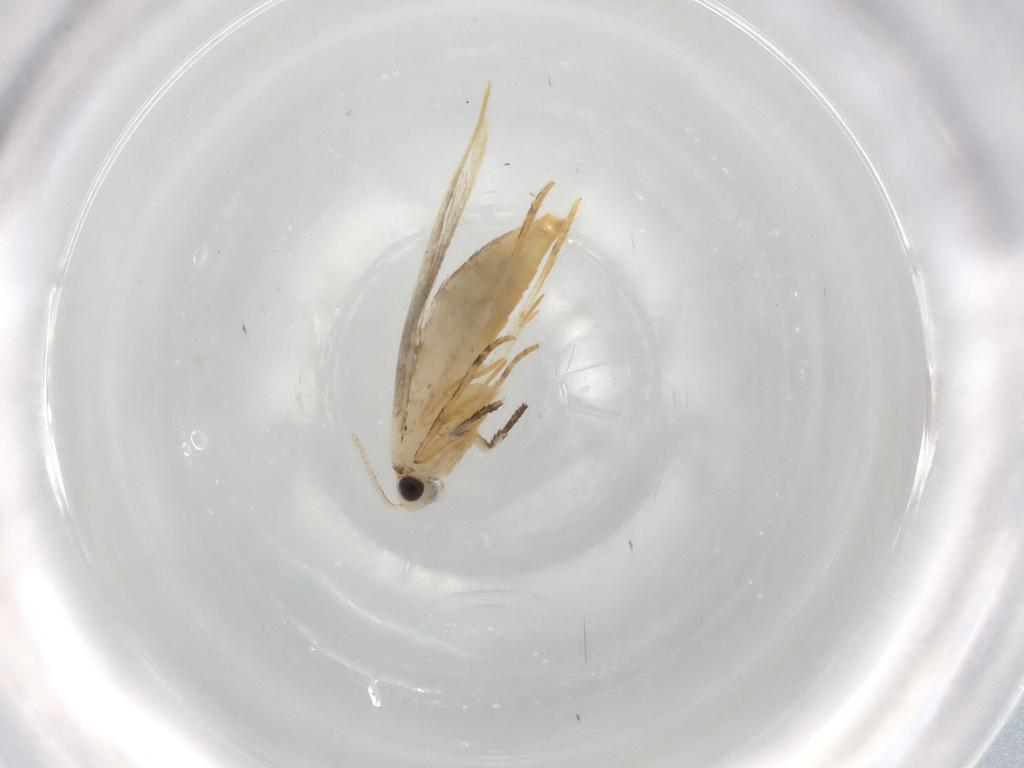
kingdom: Animalia
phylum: Arthropoda
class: Insecta
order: Lepidoptera
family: Tineidae
